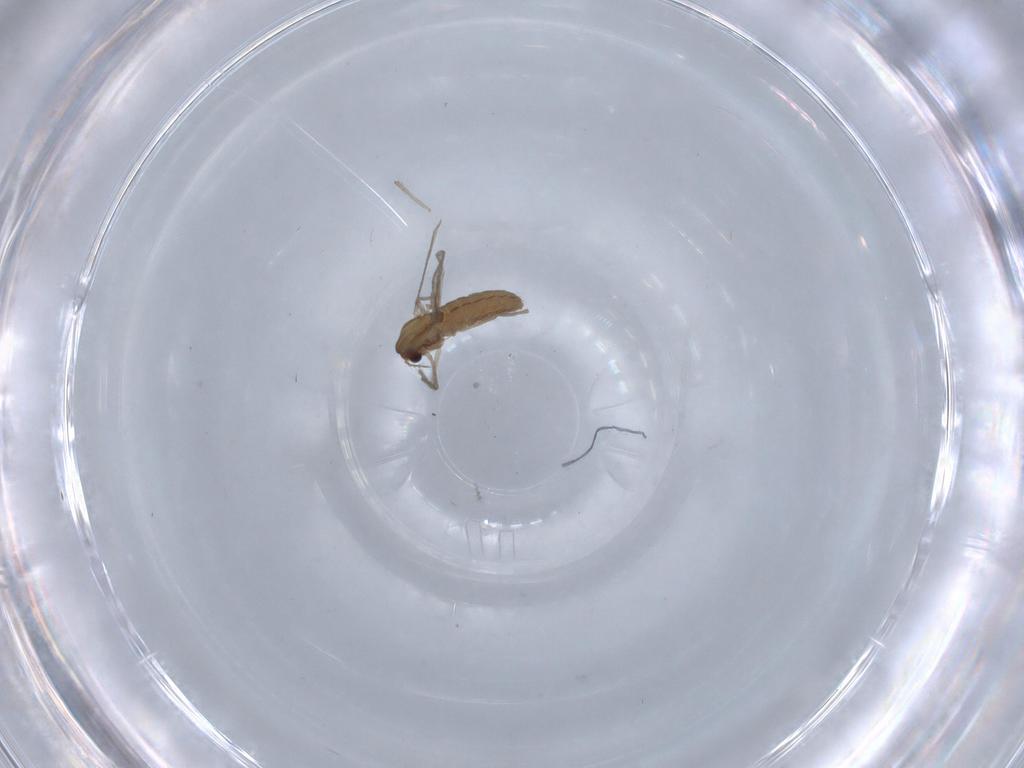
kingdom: Animalia
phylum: Arthropoda
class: Insecta
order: Diptera
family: Chironomidae
